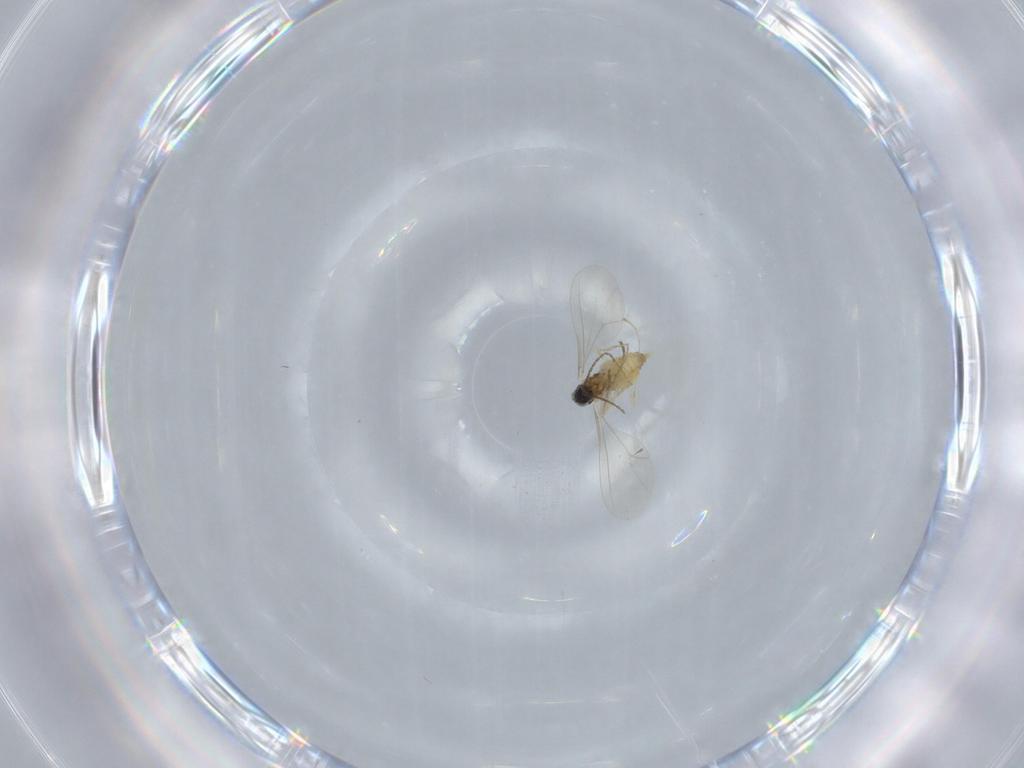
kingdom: Animalia
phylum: Arthropoda
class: Insecta
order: Diptera
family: Cecidomyiidae
